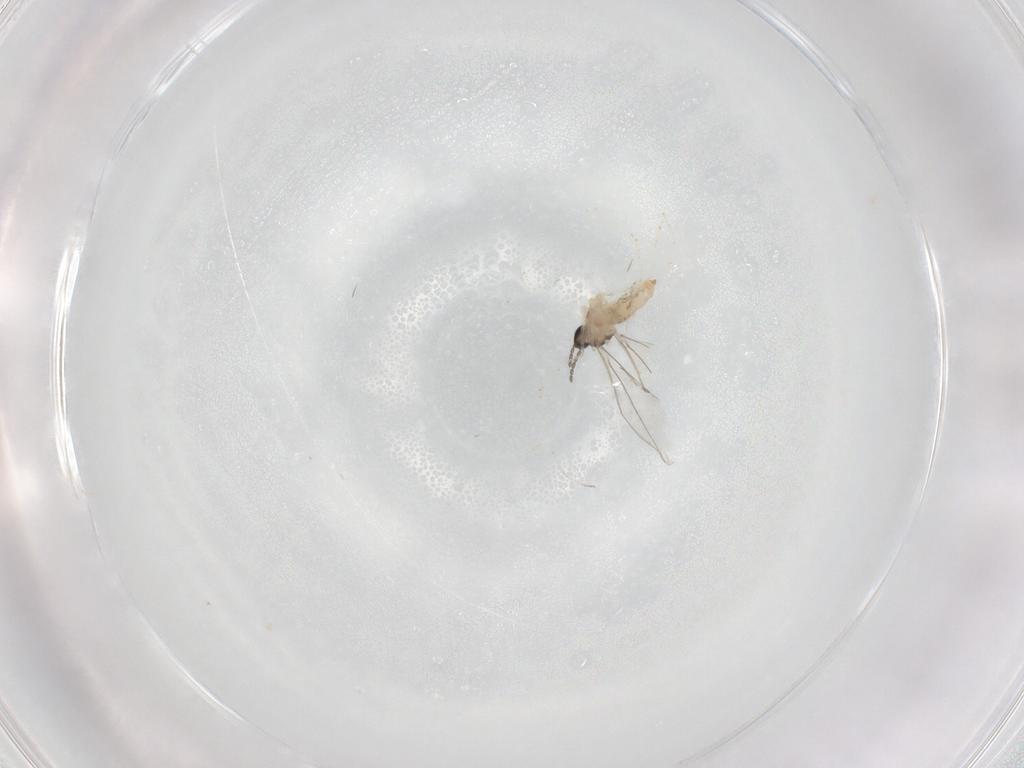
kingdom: Animalia
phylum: Arthropoda
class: Insecta
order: Diptera
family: Cecidomyiidae
